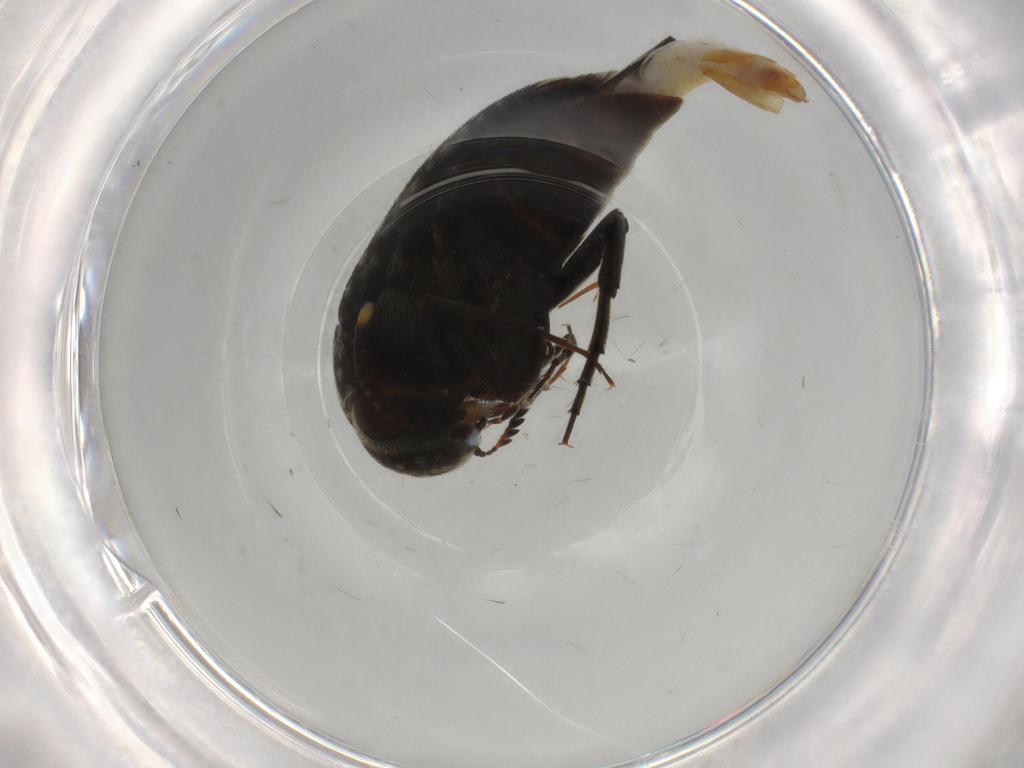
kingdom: Animalia
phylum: Arthropoda
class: Insecta
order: Coleoptera
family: Mordellidae
